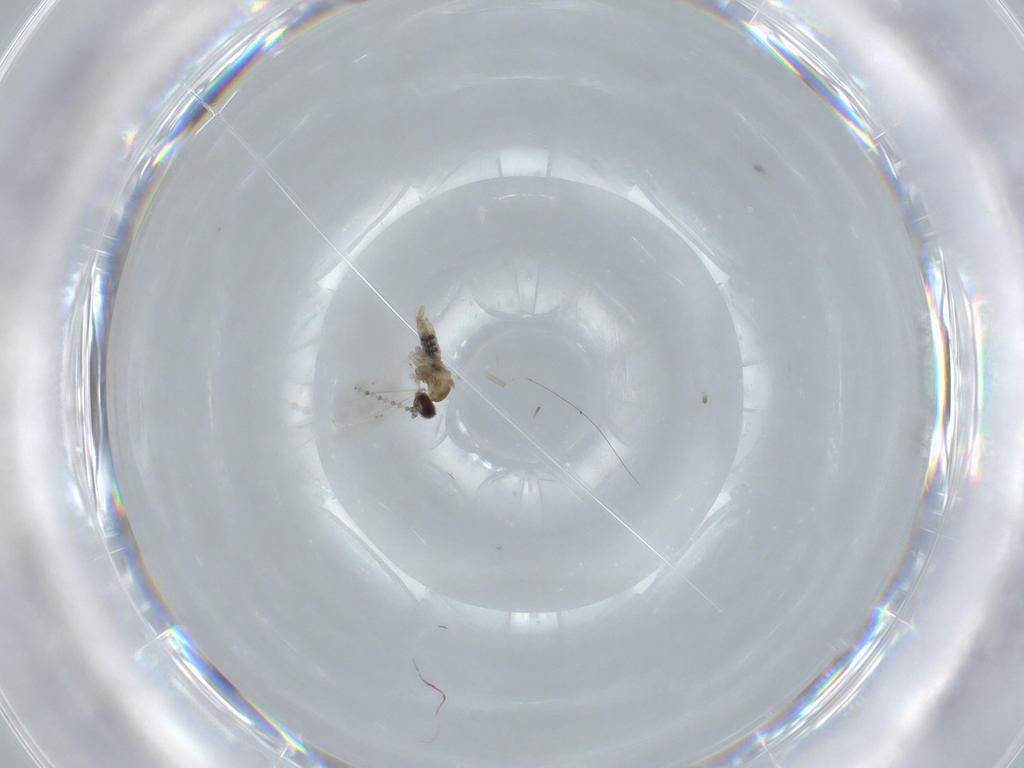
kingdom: Animalia
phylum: Arthropoda
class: Insecta
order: Diptera
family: Cecidomyiidae
